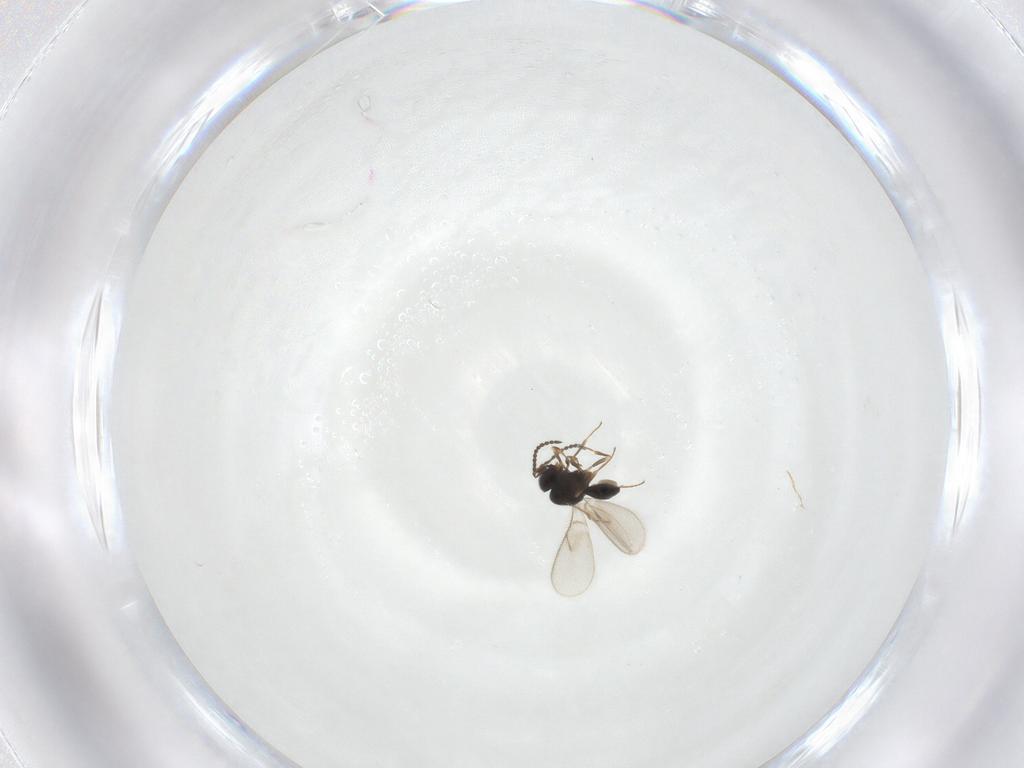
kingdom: Animalia
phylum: Arthropoda
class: Insecta
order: Hymenoptera
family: Scelionidae
